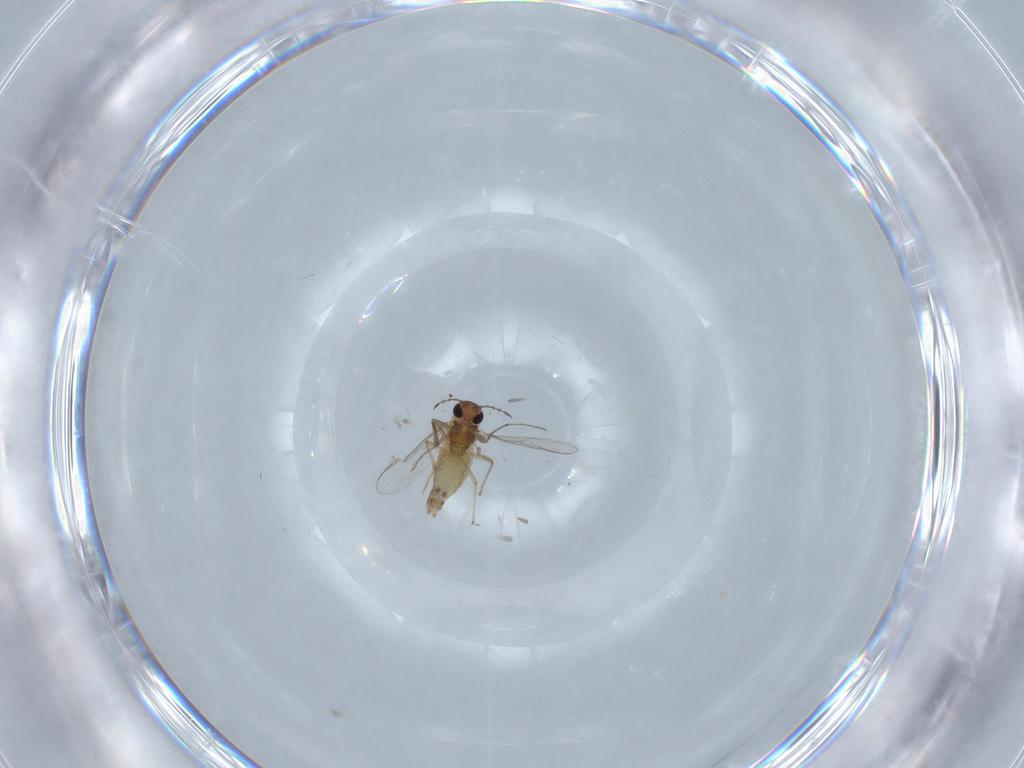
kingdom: Animalia
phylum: Arthropoda
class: Insecta
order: Diptera
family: Chironomidae
